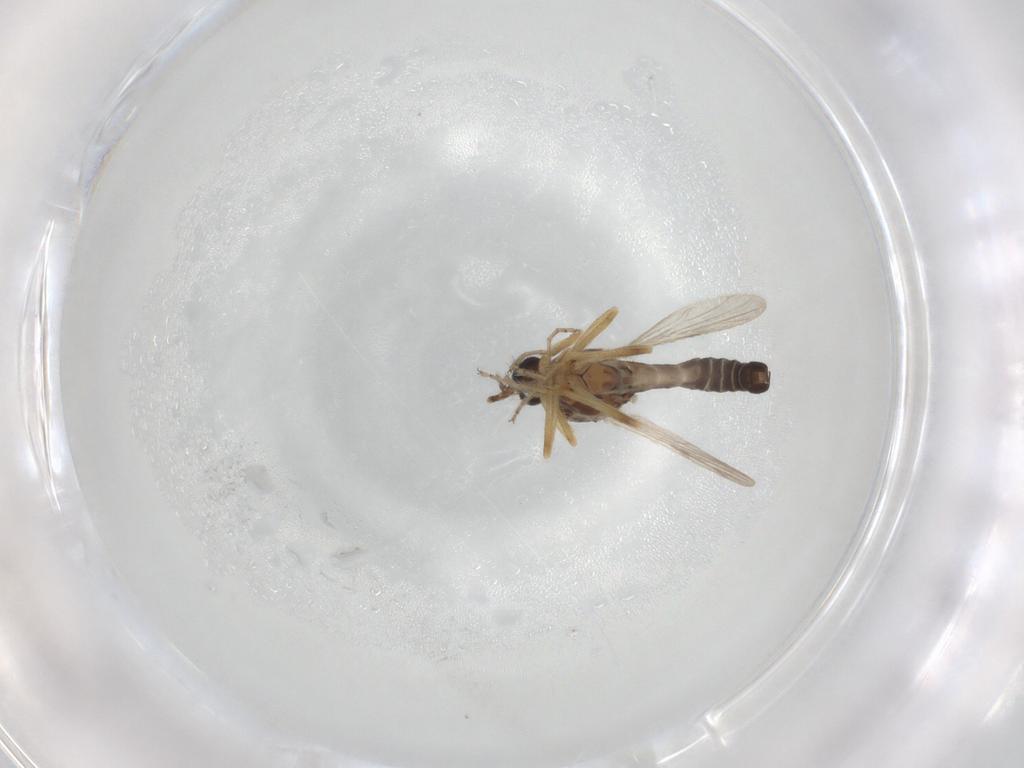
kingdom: Animalia
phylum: Arthropoda
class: Insecta
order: Diptera
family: Ceratopogonidae
